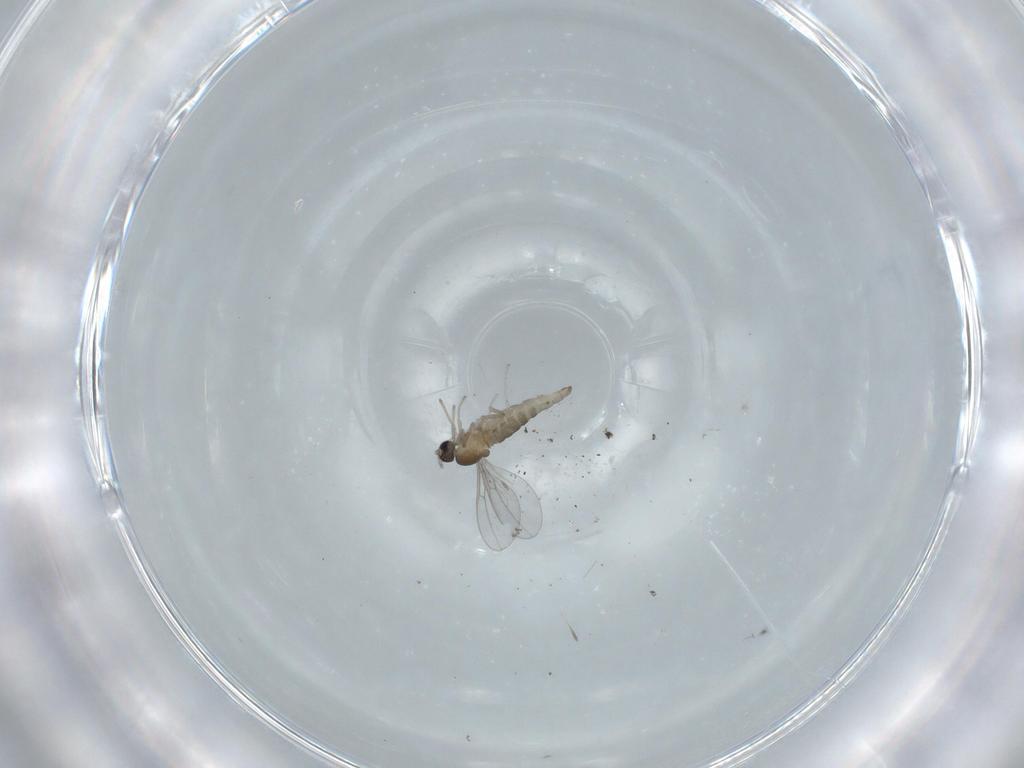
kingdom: Animalia
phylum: Arthropoda
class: Insecta
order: Diptera
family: Cecidomyiidae
